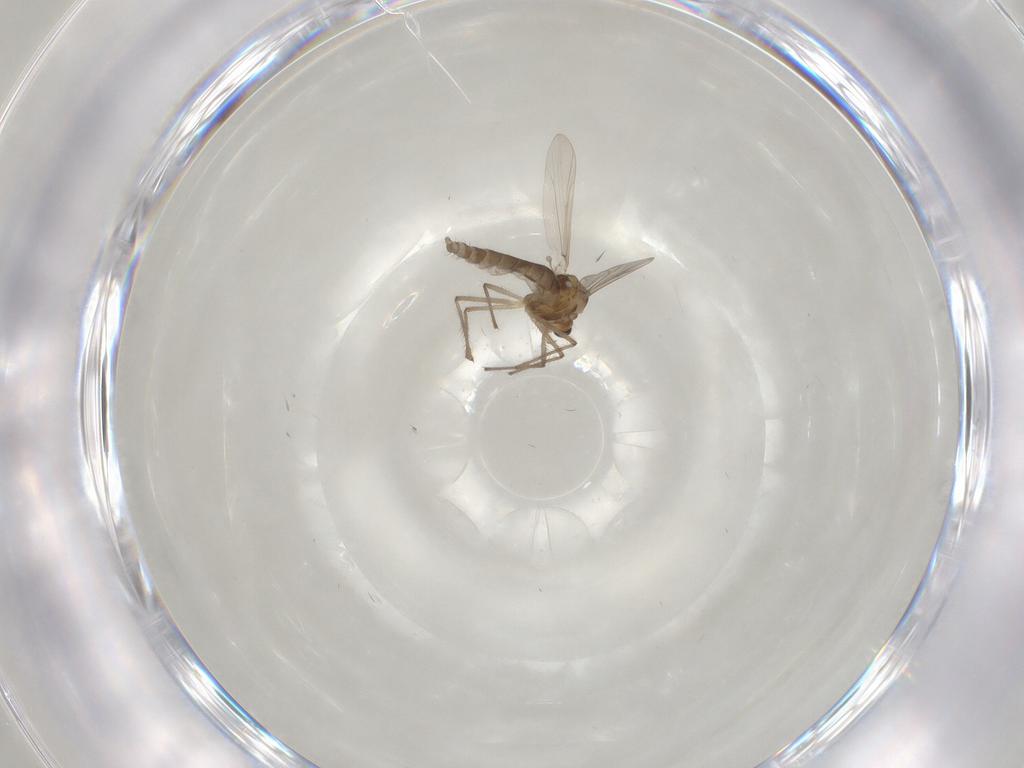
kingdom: Animalia
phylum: Arthropoda
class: Insecta
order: Diptera
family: Chironomidae
